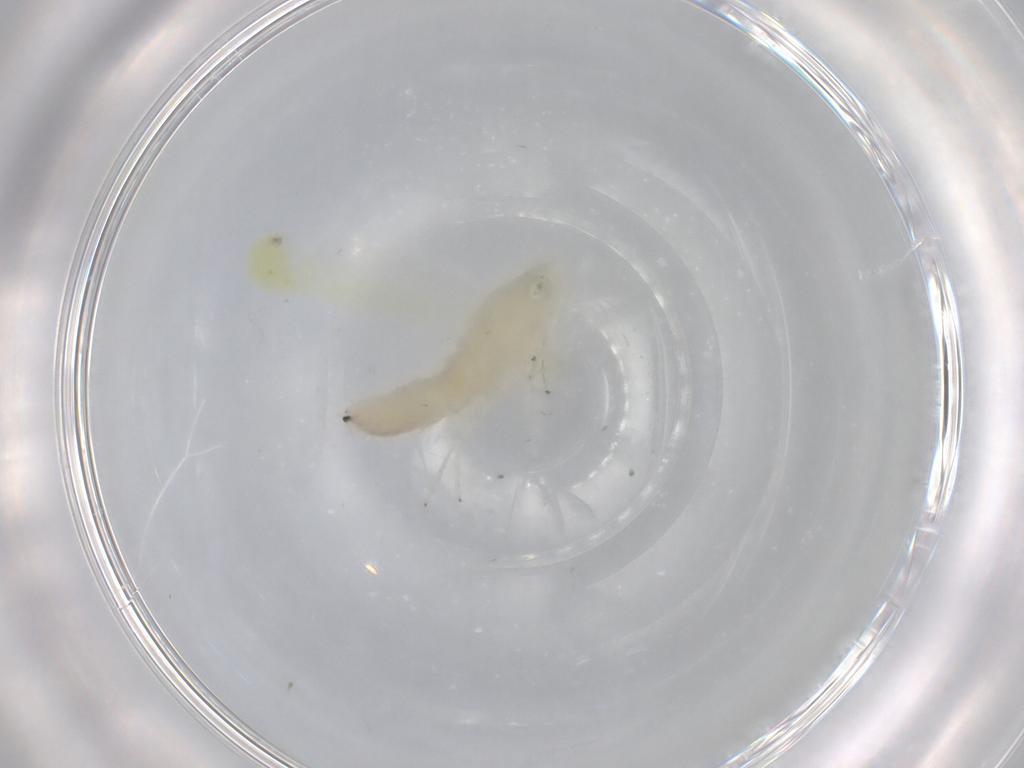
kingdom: Animalia
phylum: Arthropoda
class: Insecta
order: Hemiptera
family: Cicadellidae
